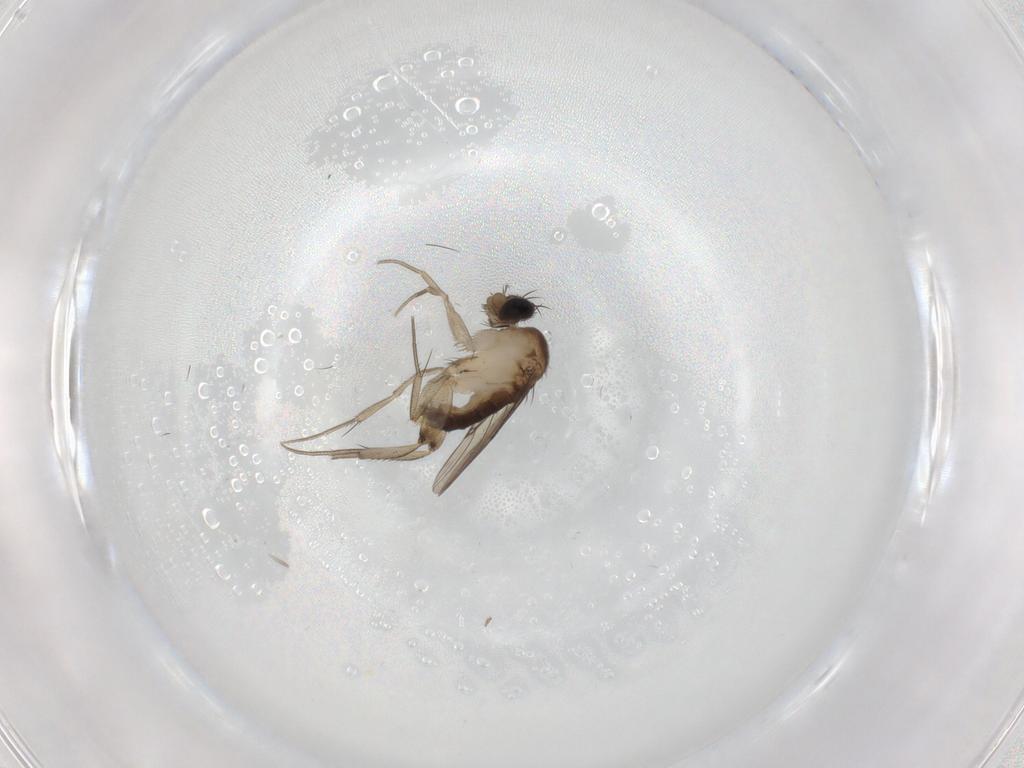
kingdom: Animalia
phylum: Arthropoda
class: Insecta
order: Diptera
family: Phoridae
